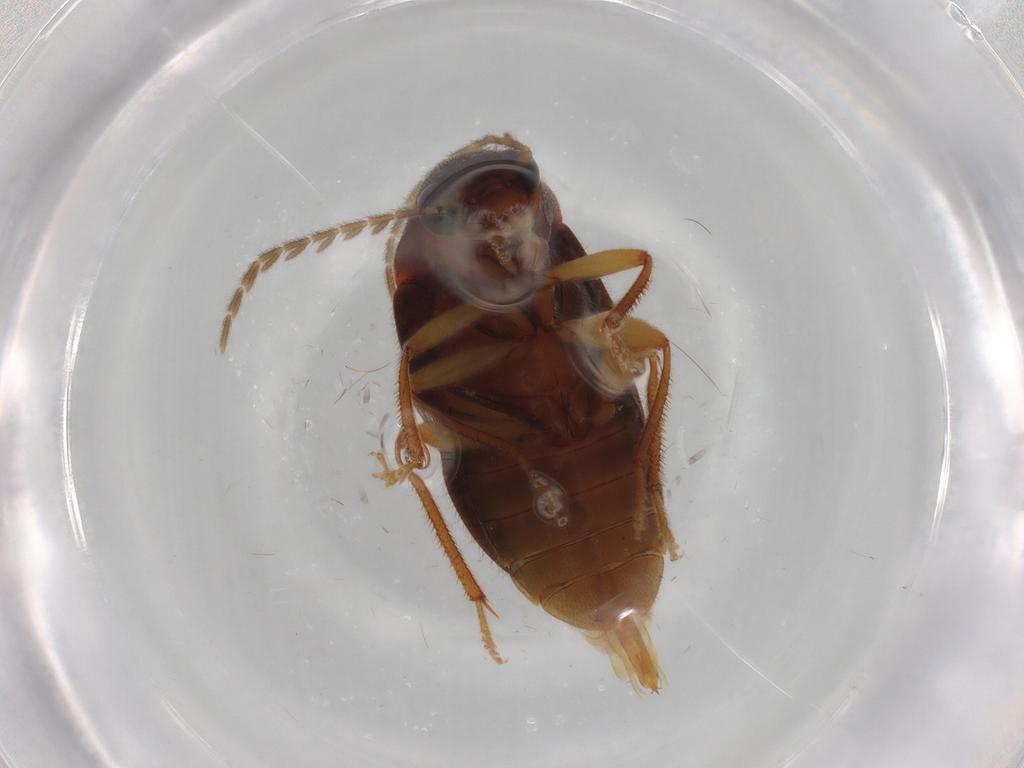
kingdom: Animalia
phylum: Arthropoda
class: Insecta
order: Coleoptera
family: Ptilodactylidae
